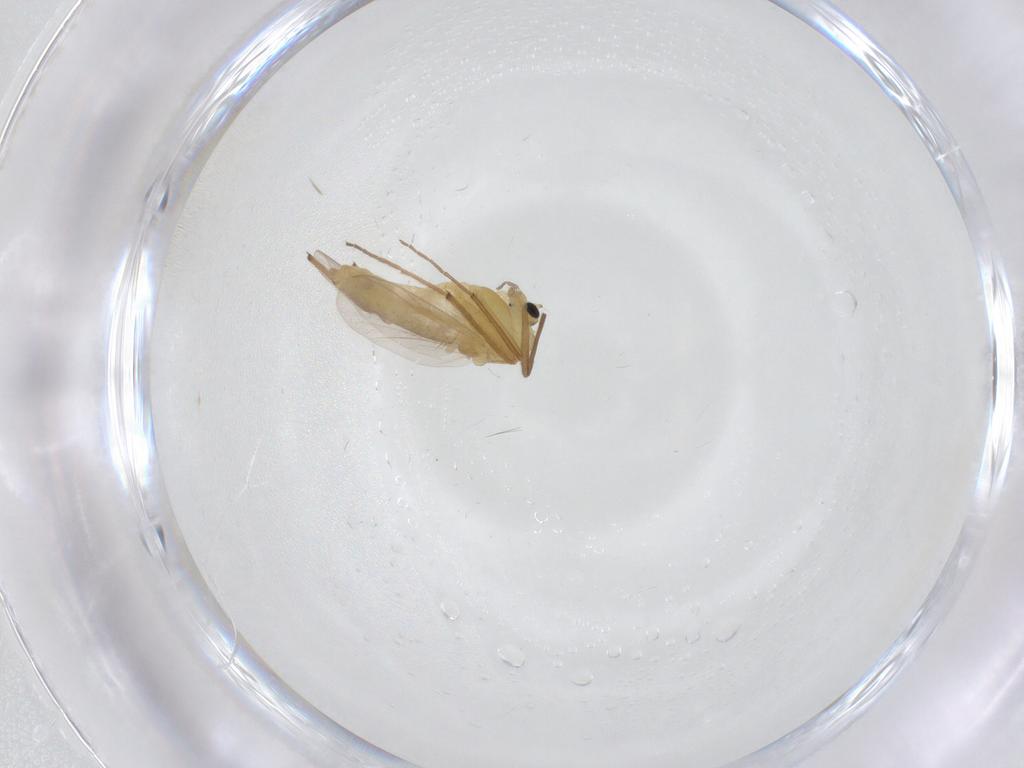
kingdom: Animalia
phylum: Arthropoda
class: Insecta
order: Diptera
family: Chironomidae
